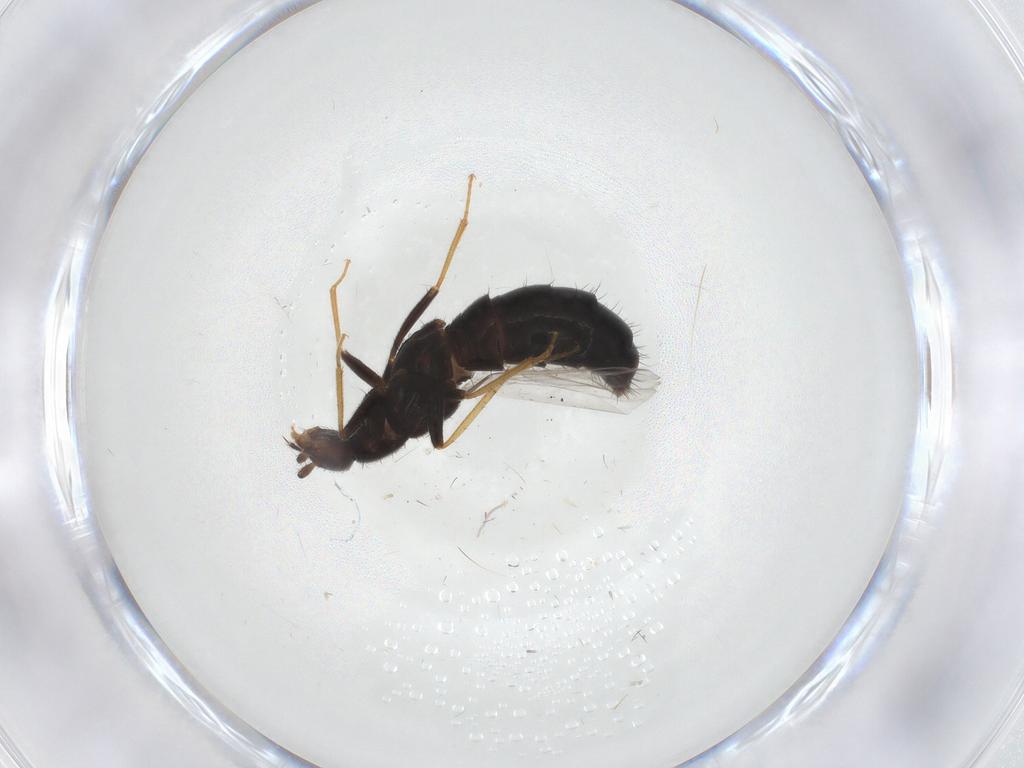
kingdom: Animalia
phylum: Arthropoda
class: Insecta
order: Coleoptera
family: Staphylinidae
